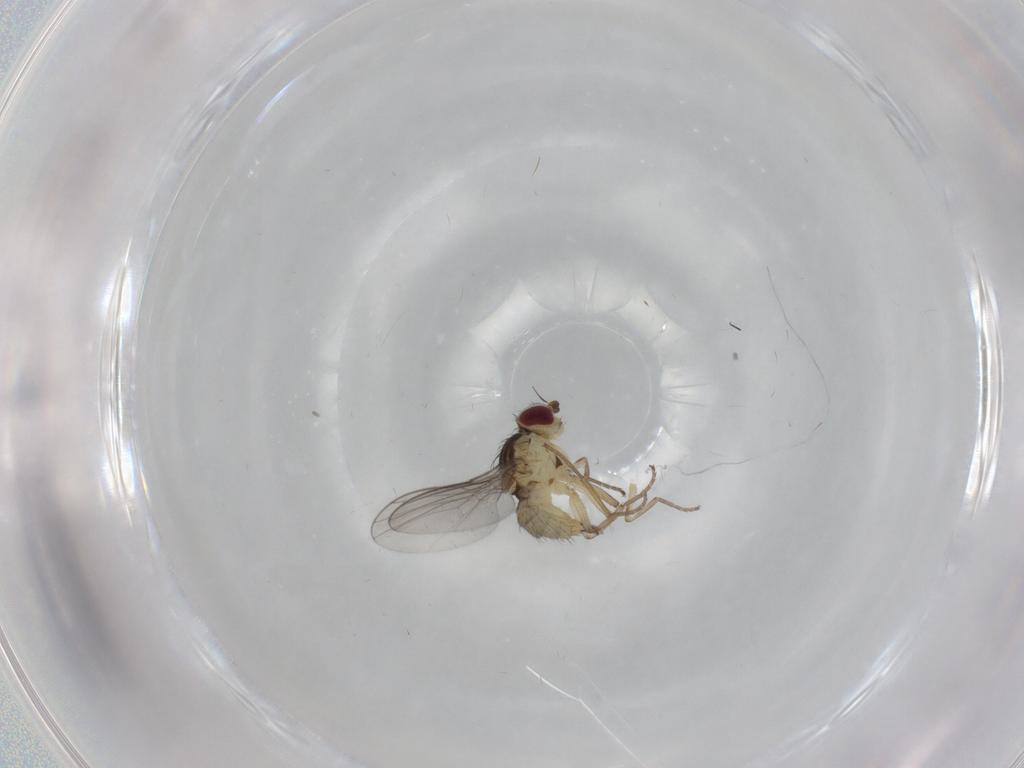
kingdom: Animalia
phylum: Arthropoda
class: Insecta
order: Diptera
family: Agromyzidae
